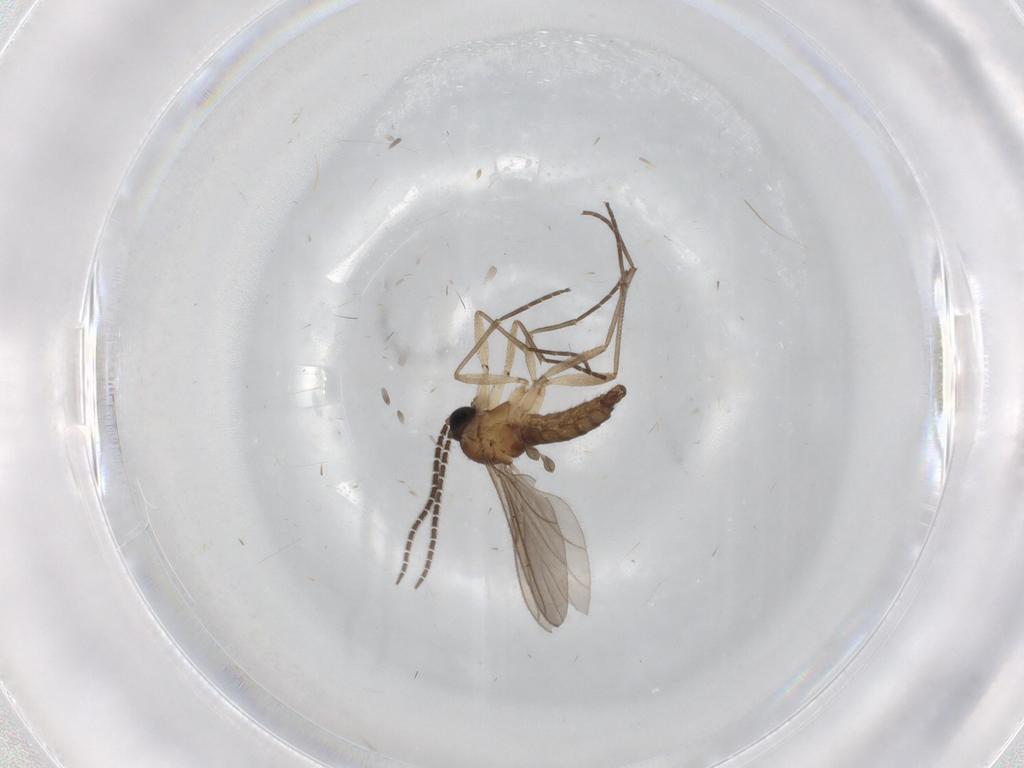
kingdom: Animalia
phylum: Arthropoda
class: Insecta
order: Diptera
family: Sciaridae
